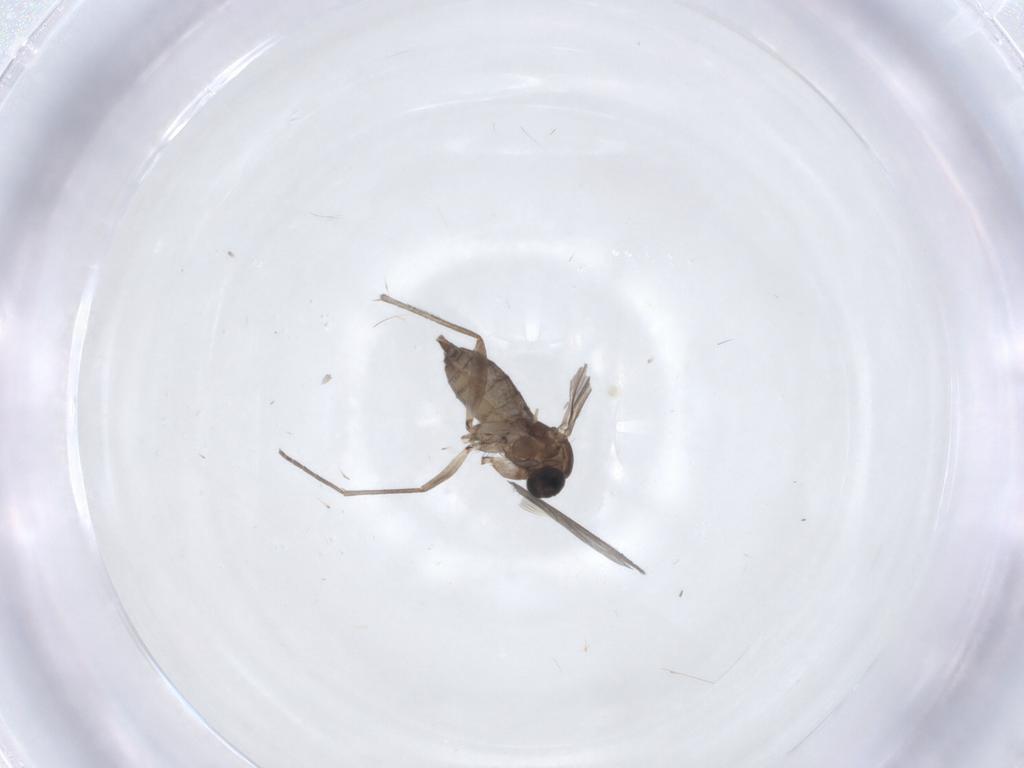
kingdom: Animalia
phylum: Arthropoda
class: Insecta
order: Diptera
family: Sciaridae
